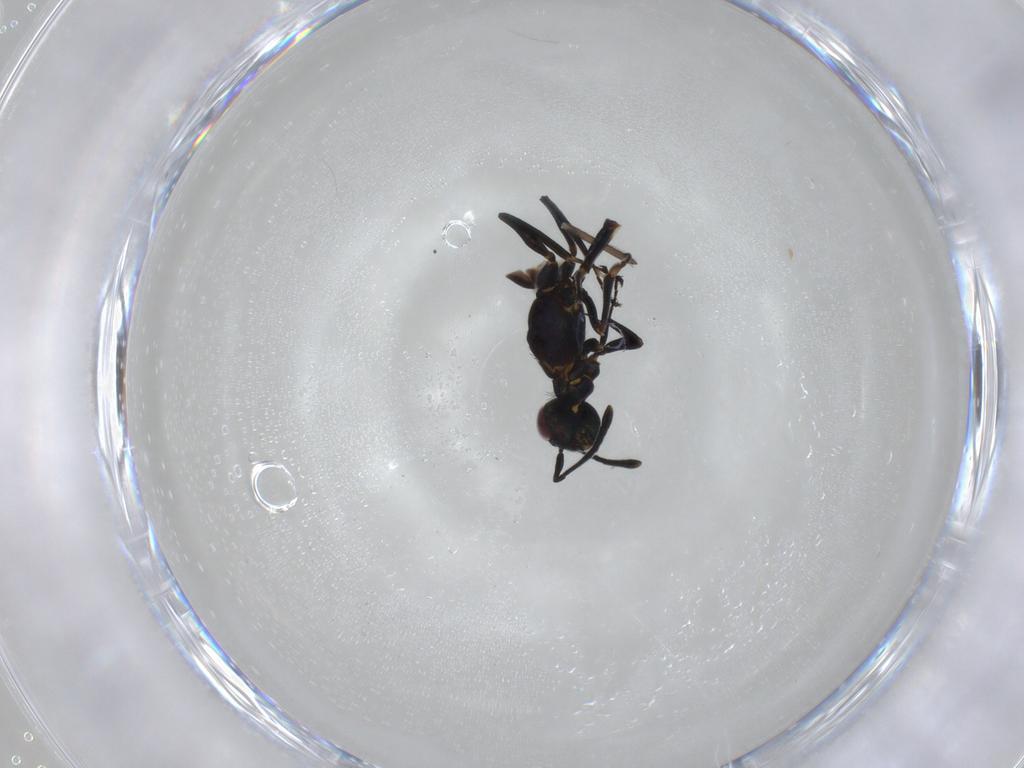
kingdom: Animalia
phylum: Arthropoda
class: Insecta
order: Hymenoptera
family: Eupelmidae
